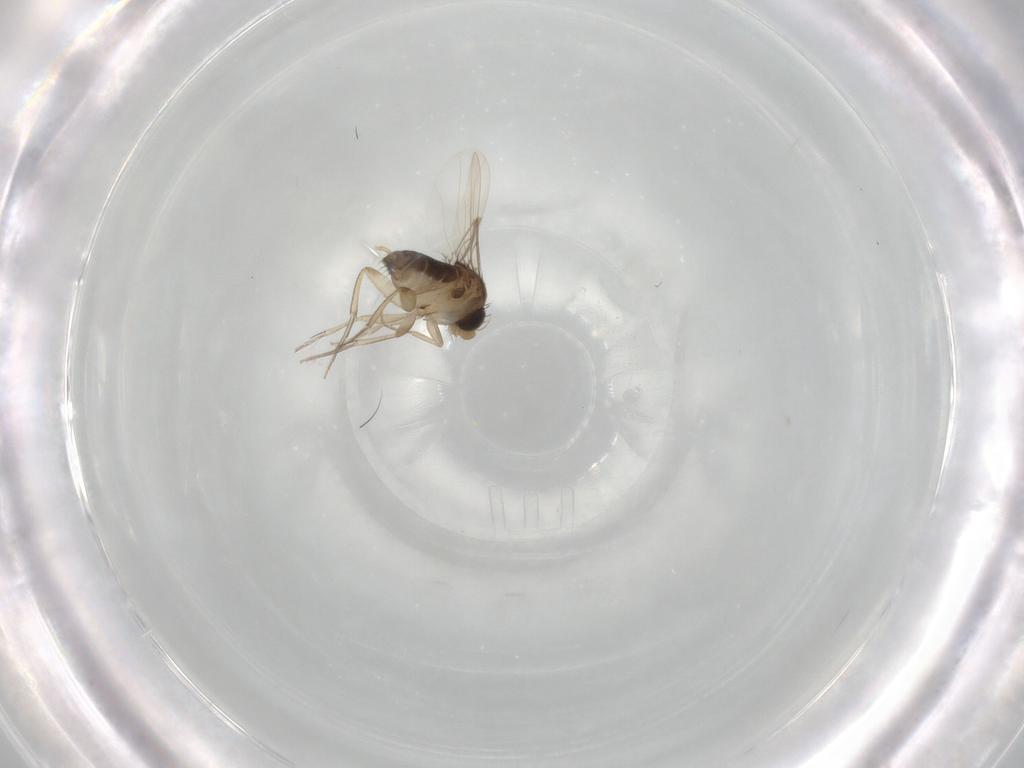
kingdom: Animalia
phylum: Arthropoda
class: Insecta
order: Diptera
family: Phoridae
